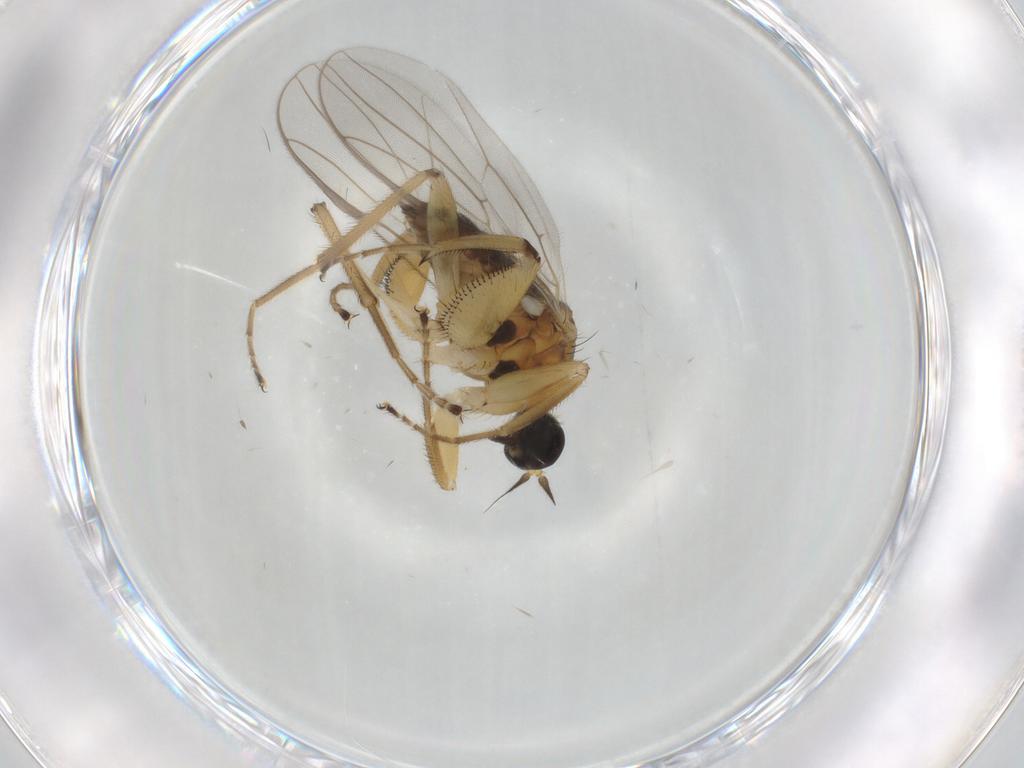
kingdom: Animalia
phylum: Arthropoda
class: Insecta
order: Diptera
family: Hybotidae
